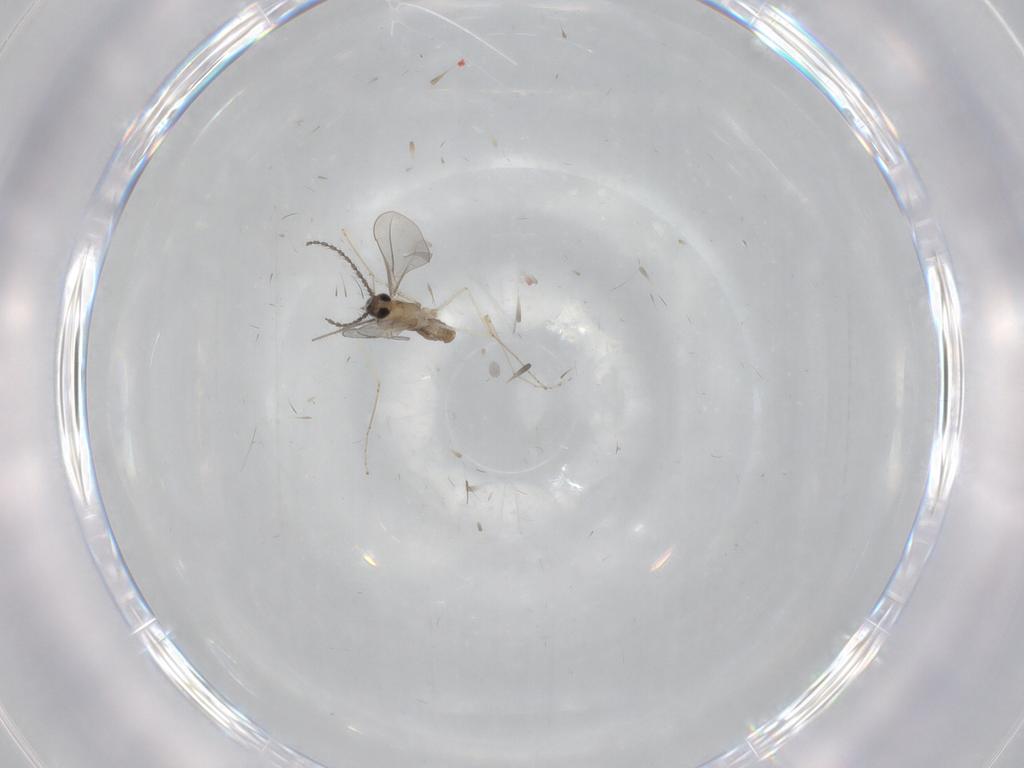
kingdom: Animalia
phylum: Arthropoda
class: Insecta
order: Diptera
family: Chironomidae
